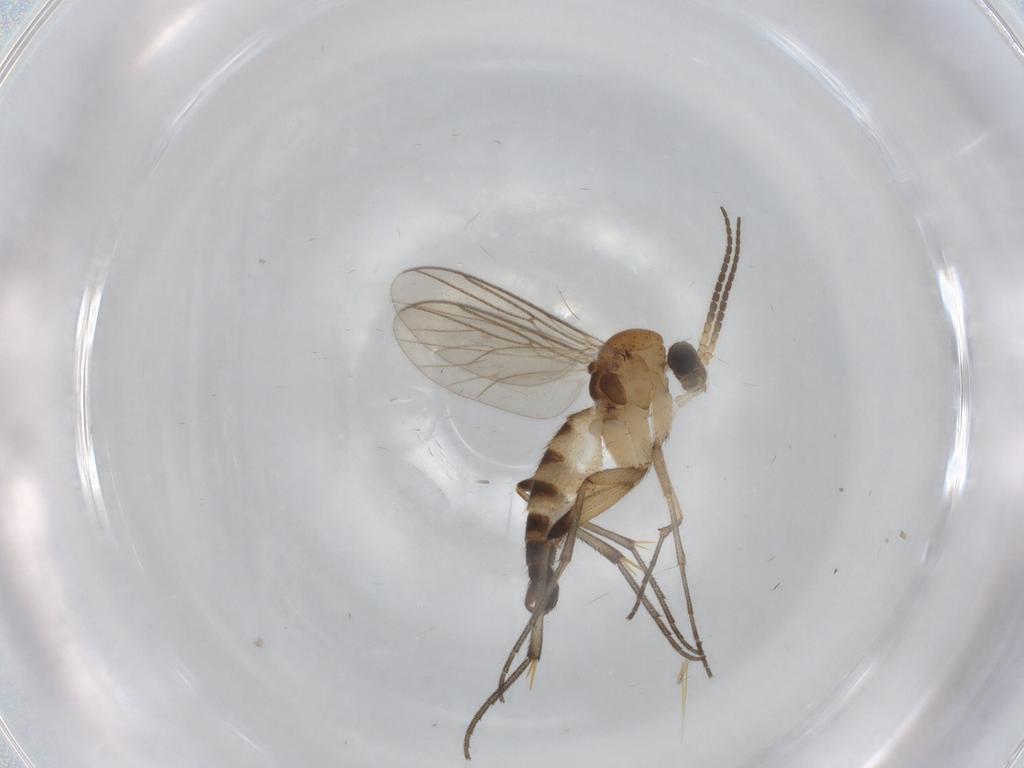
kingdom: Animalia
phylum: Arthropoda
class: Insecta
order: Diptera
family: Dolichopodidae
